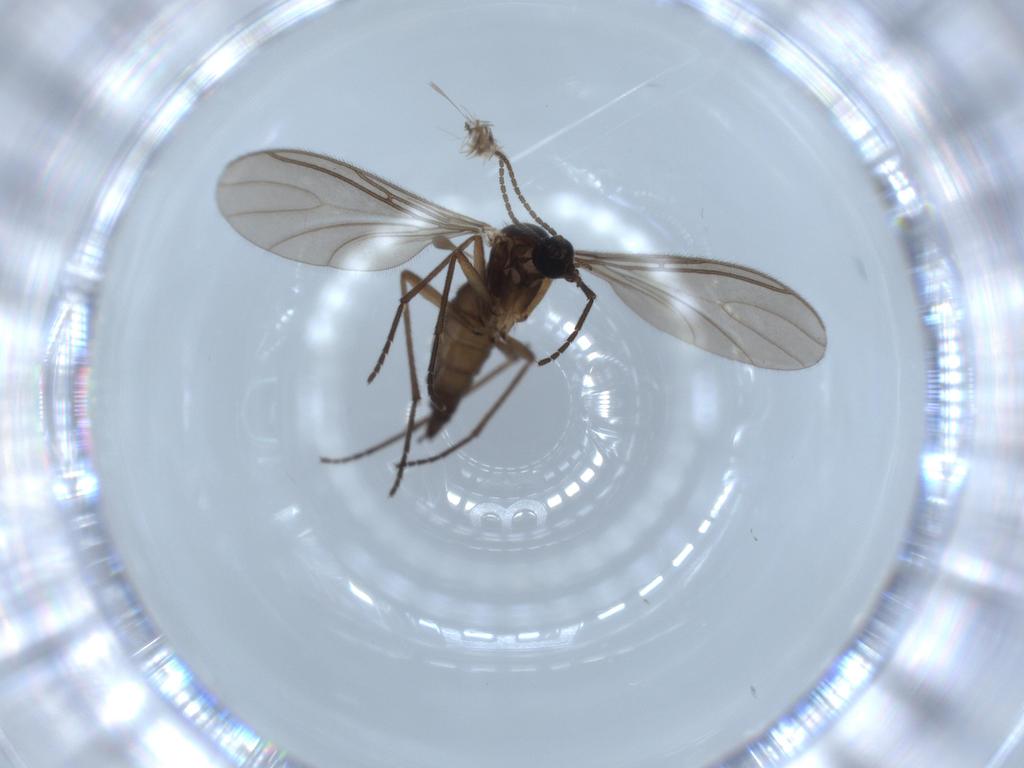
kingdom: Animalia
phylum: Arthropoda
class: Insecta
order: Diptera
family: Sciaridae
